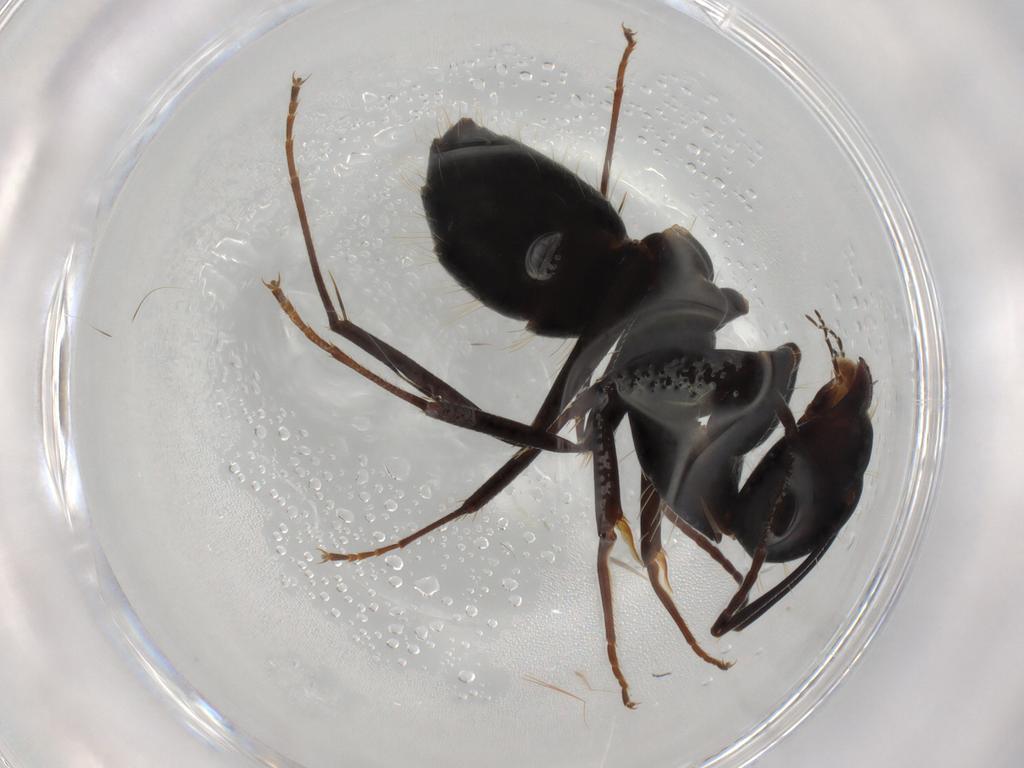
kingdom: Animalia
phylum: Arthropoda
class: Insecta
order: Hymenoptera
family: Formicidae
